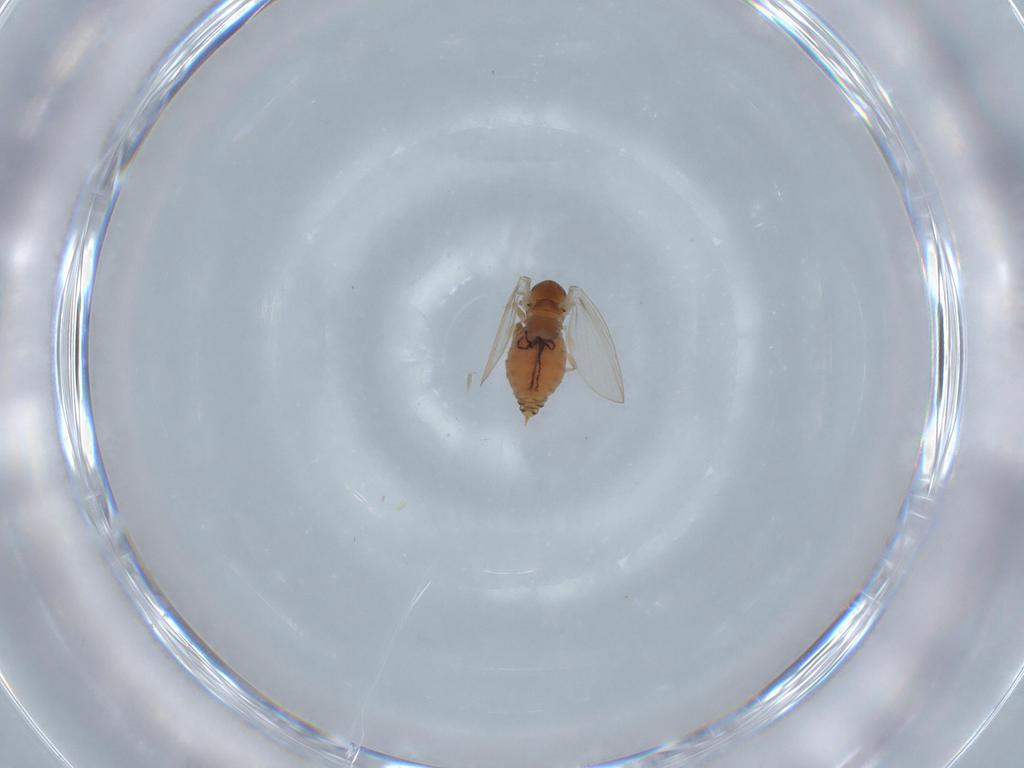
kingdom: Animalia
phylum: Arthropoda
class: Insecta
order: Diptera
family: Psychodidae
